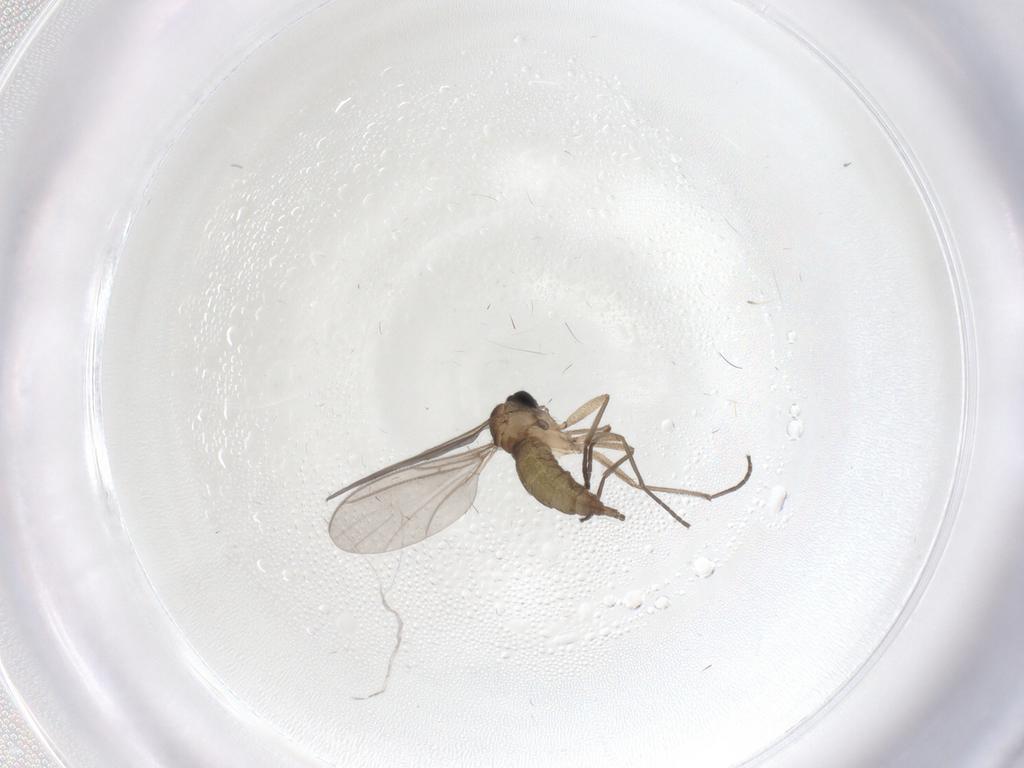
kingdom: Animalia
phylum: Arthropoda
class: Insecta
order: Diptera
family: Sciaridae
